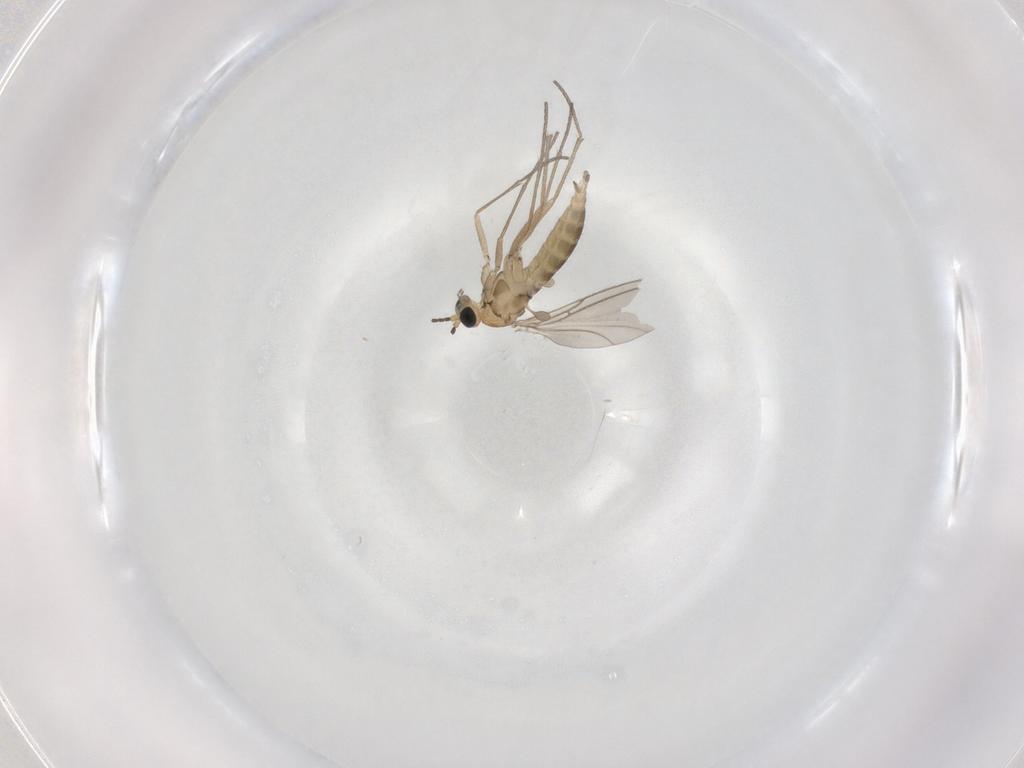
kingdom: Animalia
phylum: Arthropoda
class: Insecta
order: Diptera
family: Sciaridae
